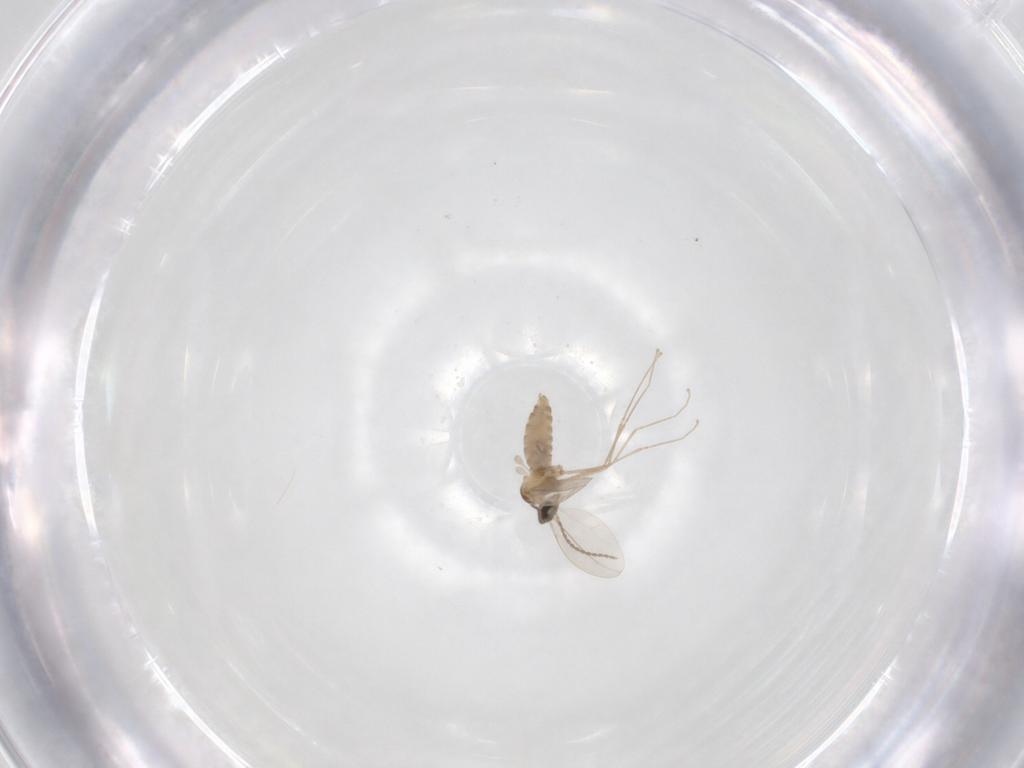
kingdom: Animalia
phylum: Arthropoda
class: Insecta
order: Diptera
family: Cecidomyiidae
